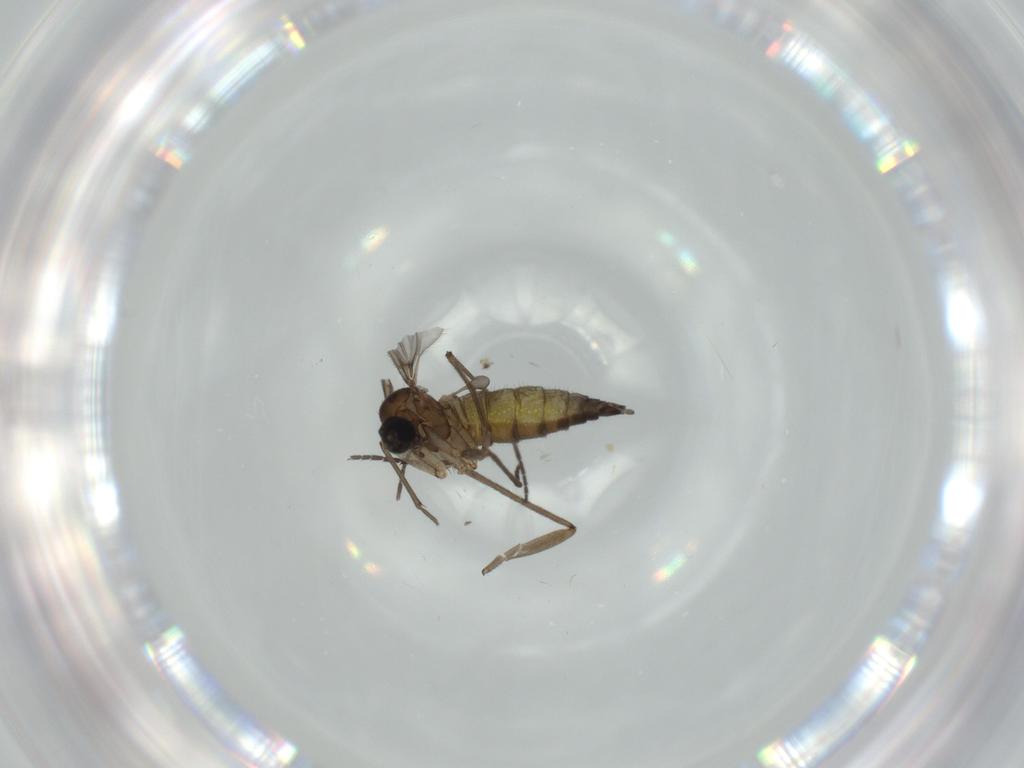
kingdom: Animalia
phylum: Arthropoda
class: Insecta
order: Diptera
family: Sciaridae
